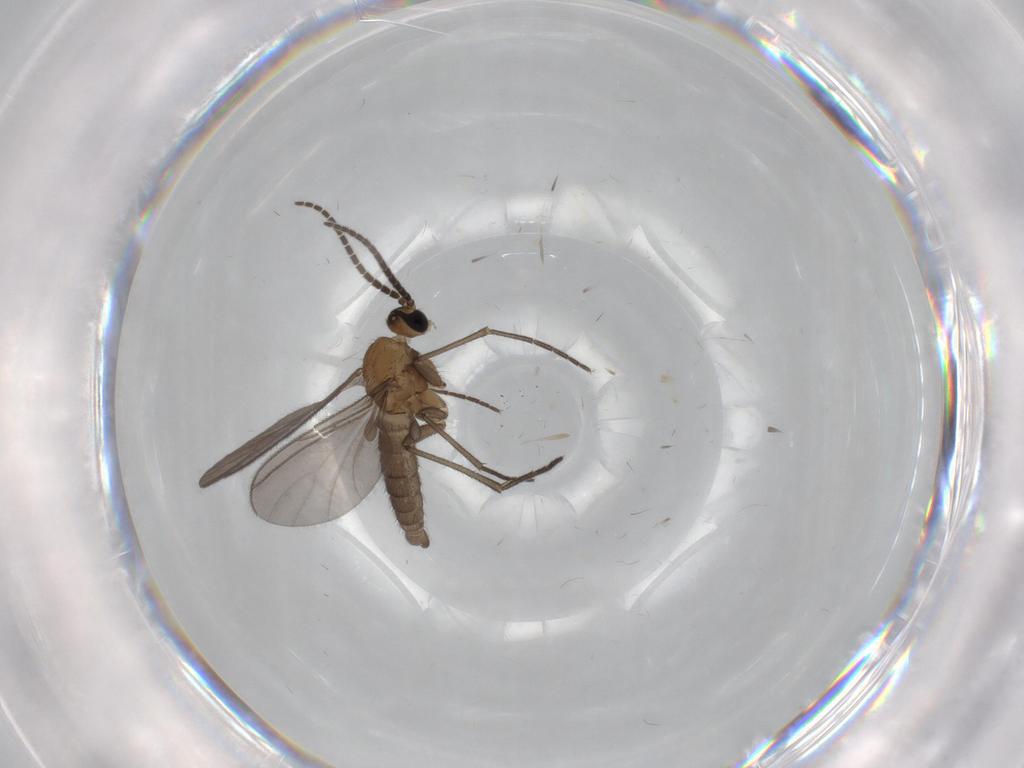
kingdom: Animalia
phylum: Arthropoda
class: Insecta
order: Diptera
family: Sciaridae
